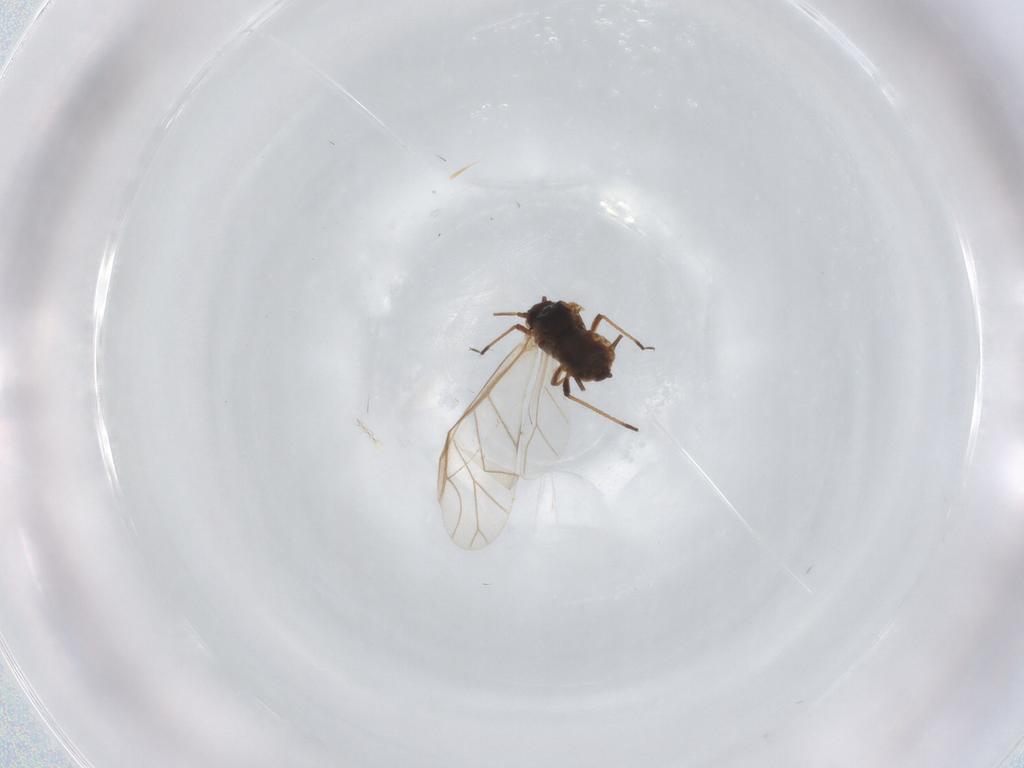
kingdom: Animalia
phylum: Arthropoda
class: Insecta
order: Hemiptera
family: Aphididae
